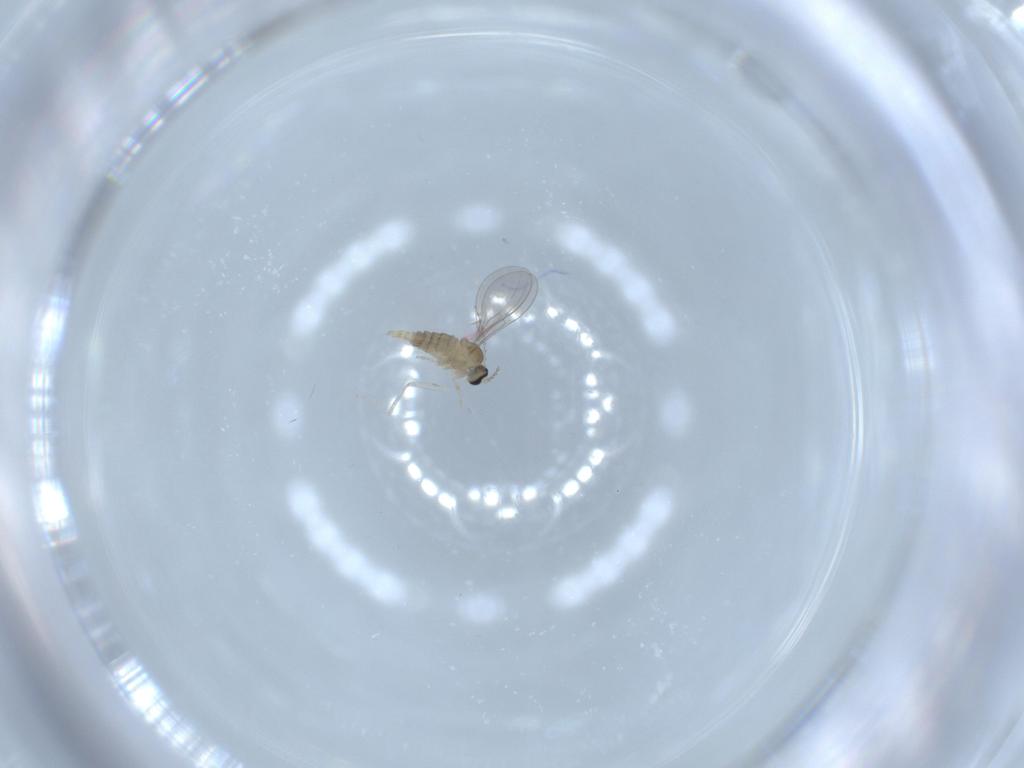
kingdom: Animalia
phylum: Arthropoda
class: Insecta
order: Diptera
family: Cecidomyiidae
